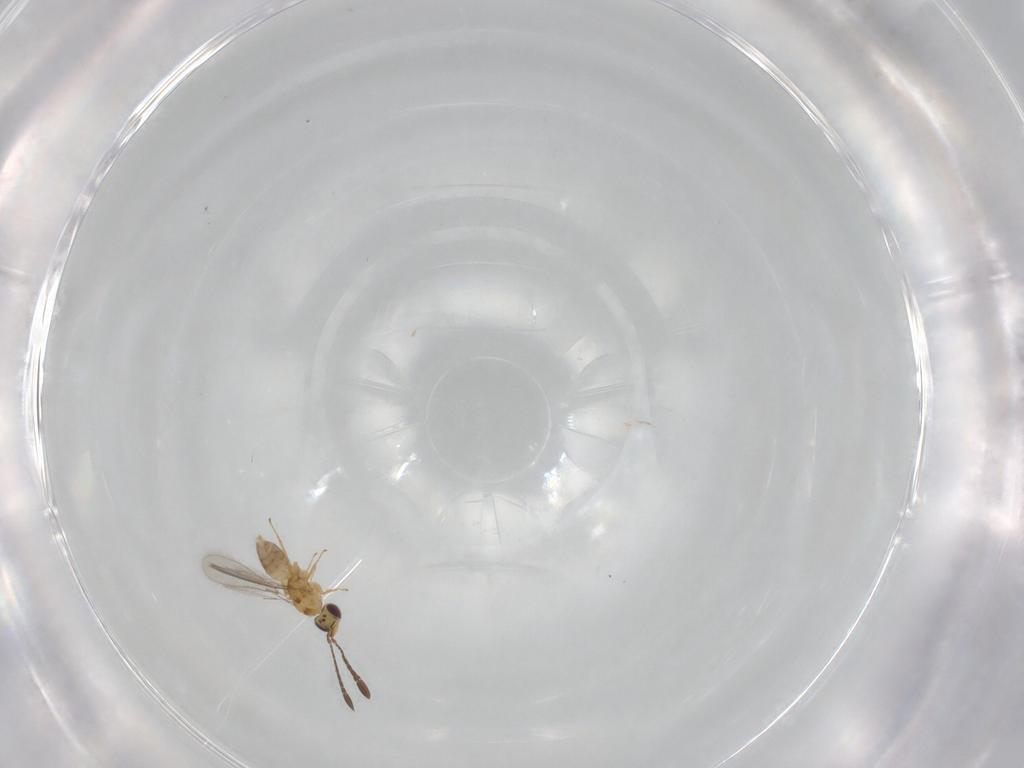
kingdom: Animalia
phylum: Arthropoda
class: Insecta
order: Hymenoptera
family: Mymaridae
